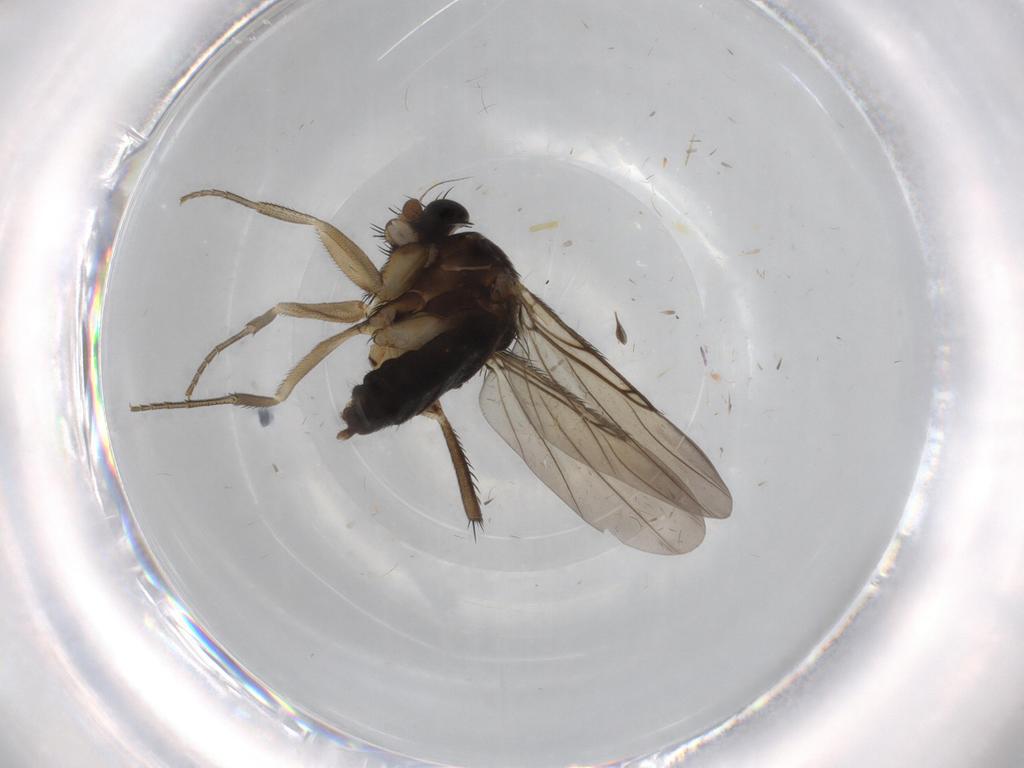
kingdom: Animalia
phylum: Arthropoda
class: Insecta
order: Diptera
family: Phoridae
